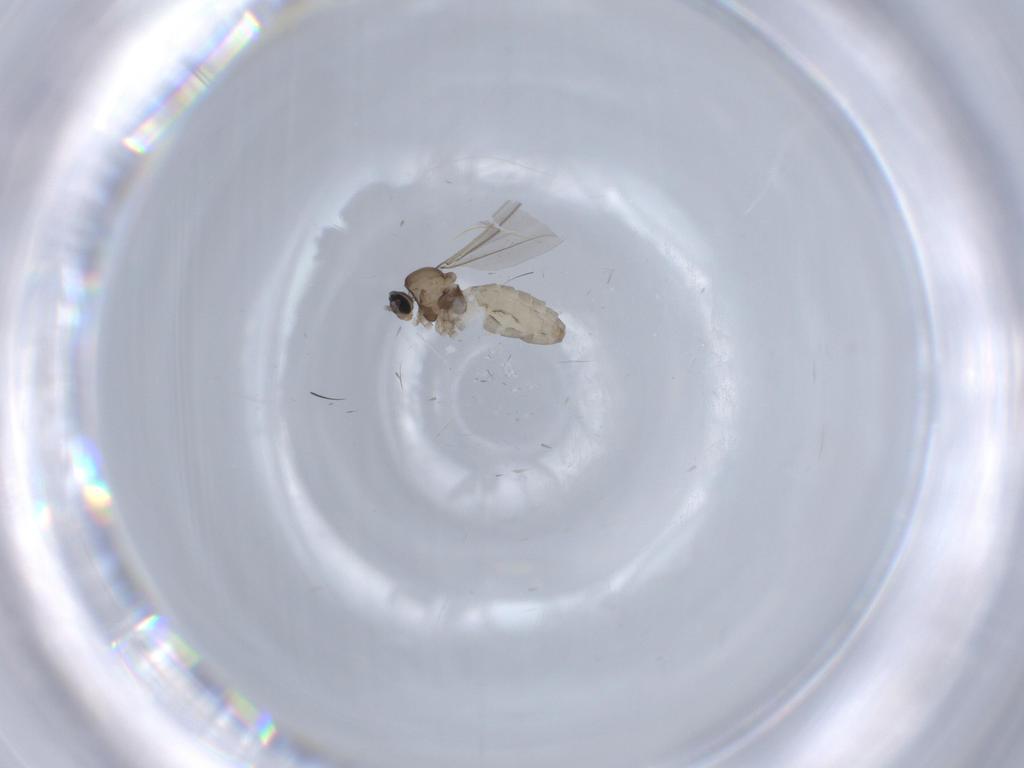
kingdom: Animalia
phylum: Arthropoda
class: Insecta
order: Diptera
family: Cecidomyiidae
